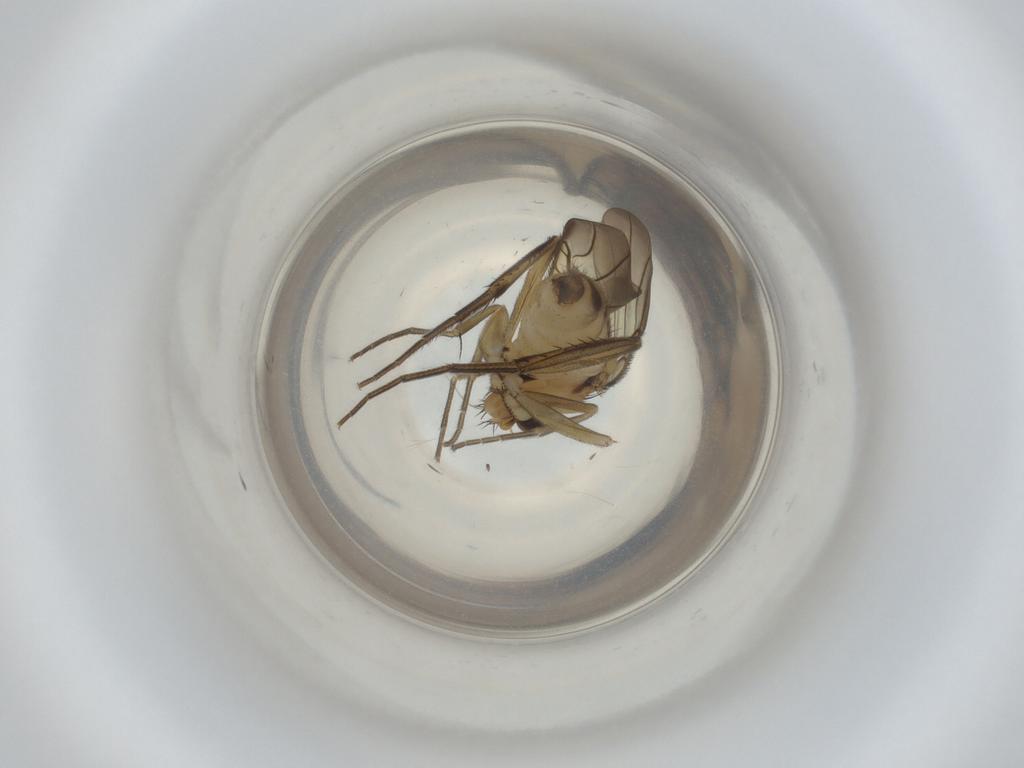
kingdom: Animalia
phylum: Arthropoda
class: Insecta
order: Diptera
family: Phoridae
